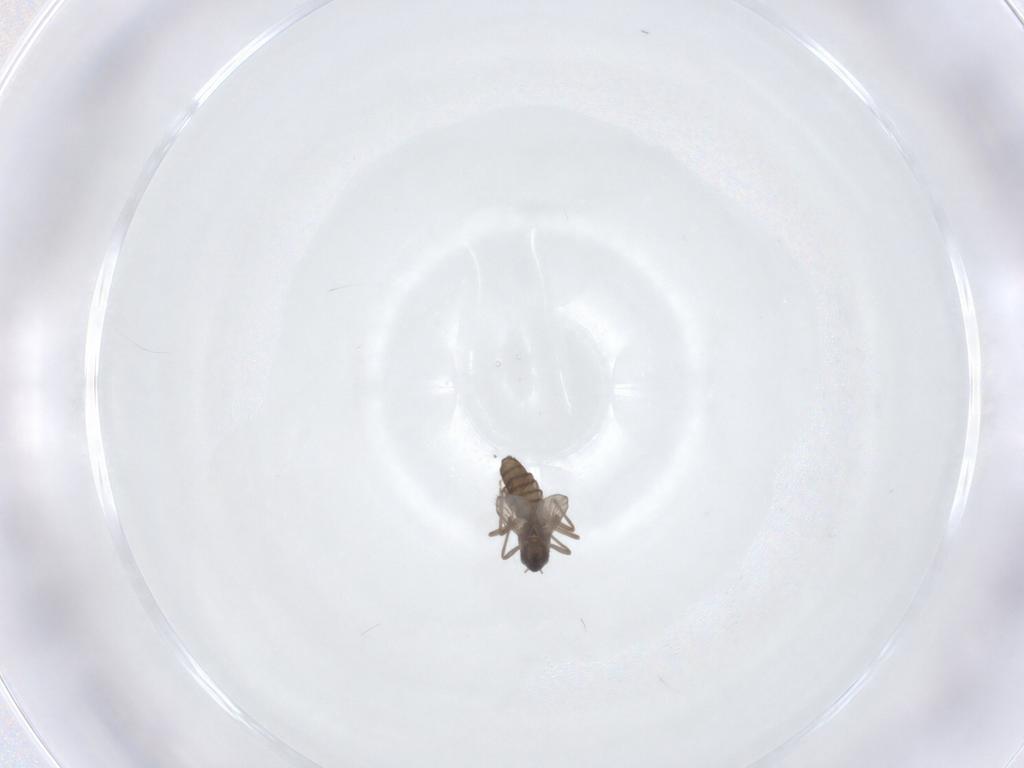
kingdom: Animalia
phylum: Arthropoda
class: Insecta
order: Diptera
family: Chironomidae
